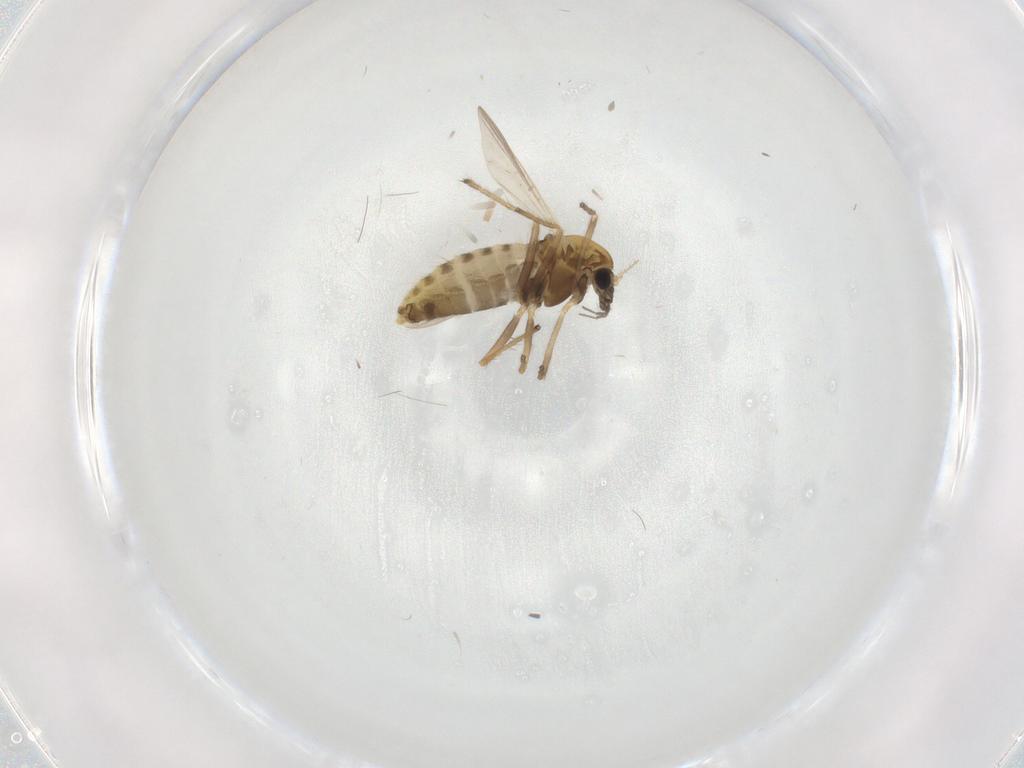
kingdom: Animalia
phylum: Arthropoda
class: Insecta
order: Diptera
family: Chironomidae
